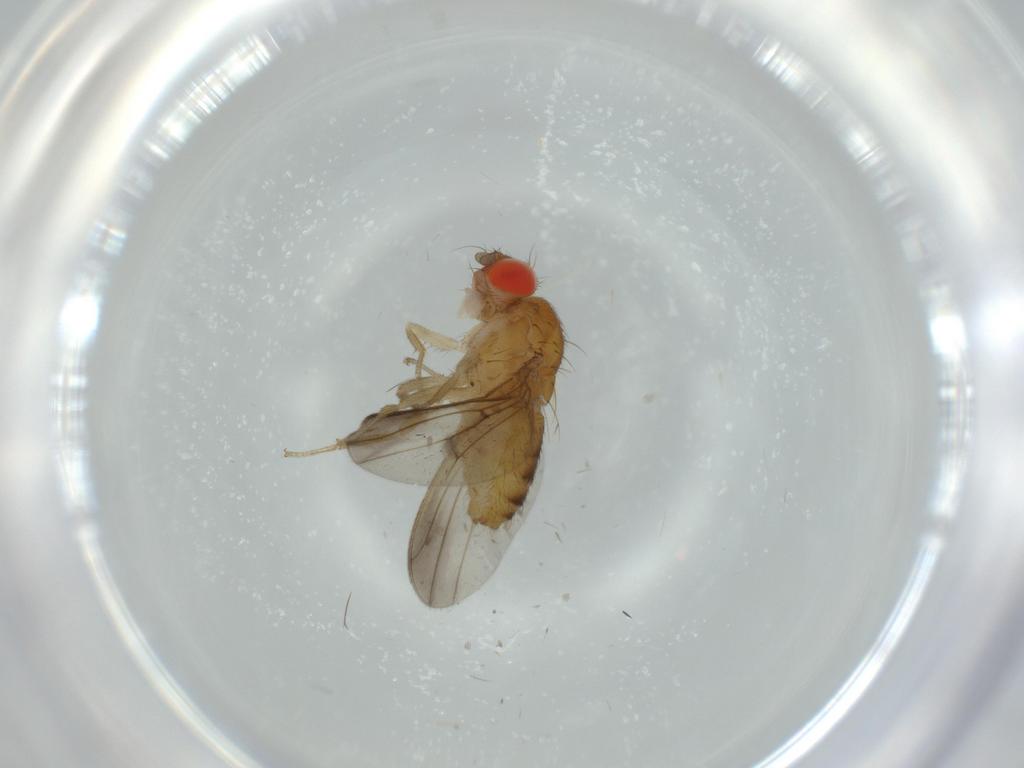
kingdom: Animalia
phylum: Arthropoda
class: Insecta
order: Diptera
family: Drosophilidae
